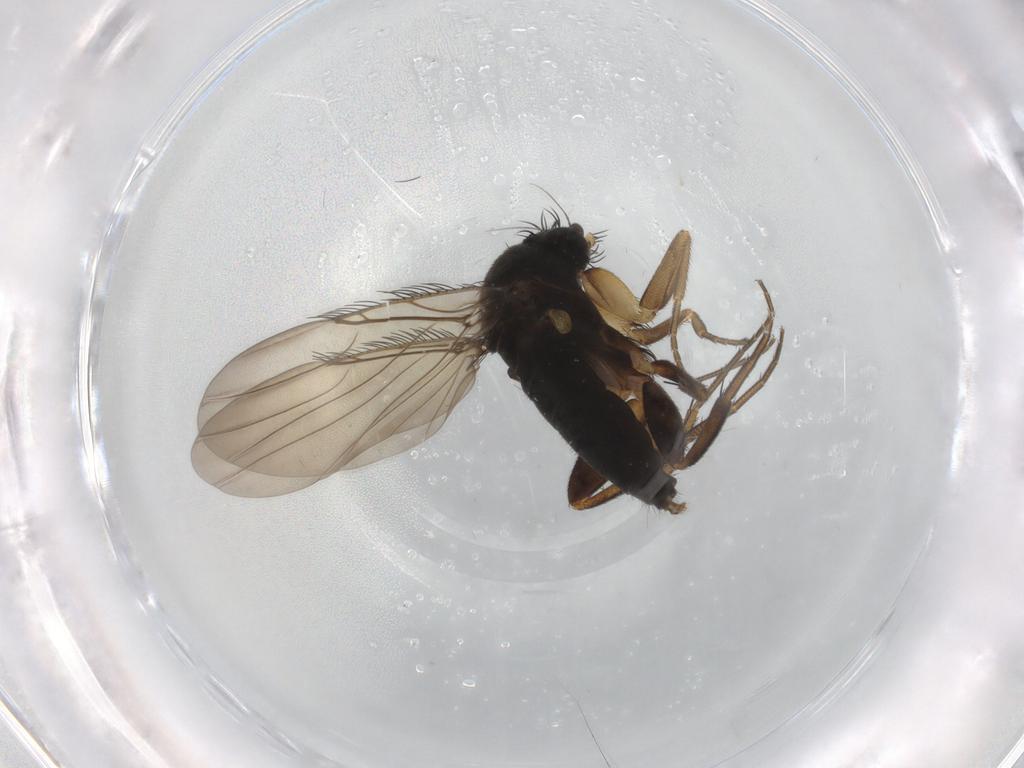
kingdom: Animalia
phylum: Arthropoda
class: Insecta
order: Diptera
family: Phoridae
